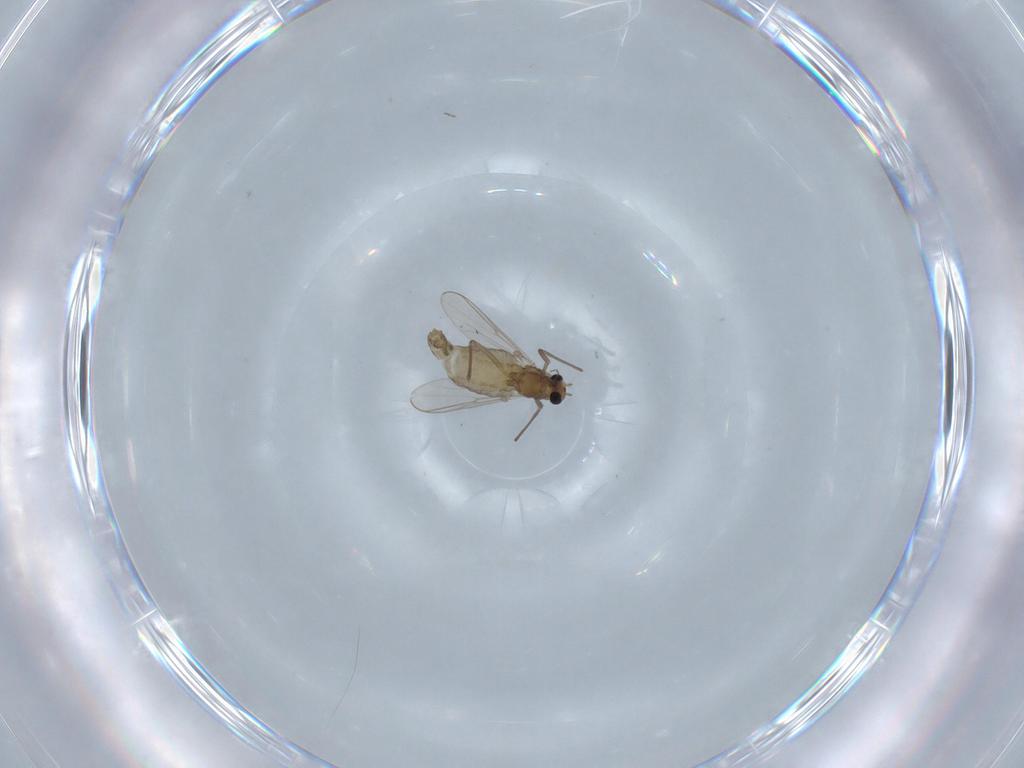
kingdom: Animalia
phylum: Arthropoda
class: Insecta
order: Diptera
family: Chironomidae
